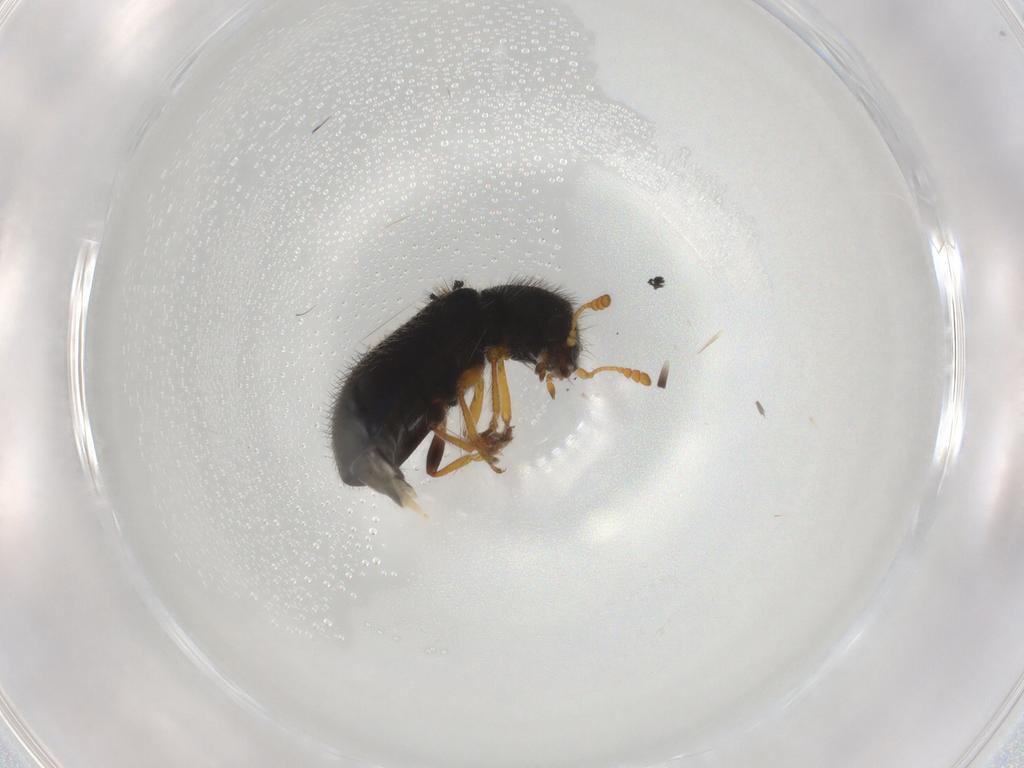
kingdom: Animalia
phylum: Arthropoda
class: Insecta
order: Coleoptera
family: Cleridae
